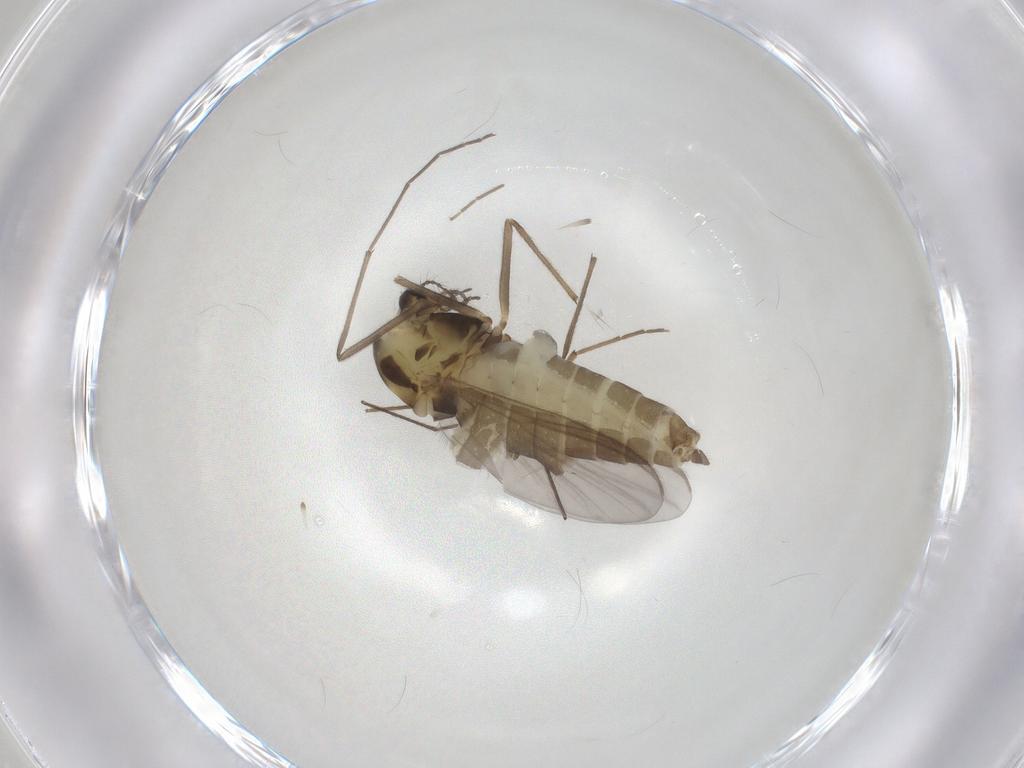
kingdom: Animalia
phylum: Arthropoda
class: Insecta
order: Diptera
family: Chironomidae
